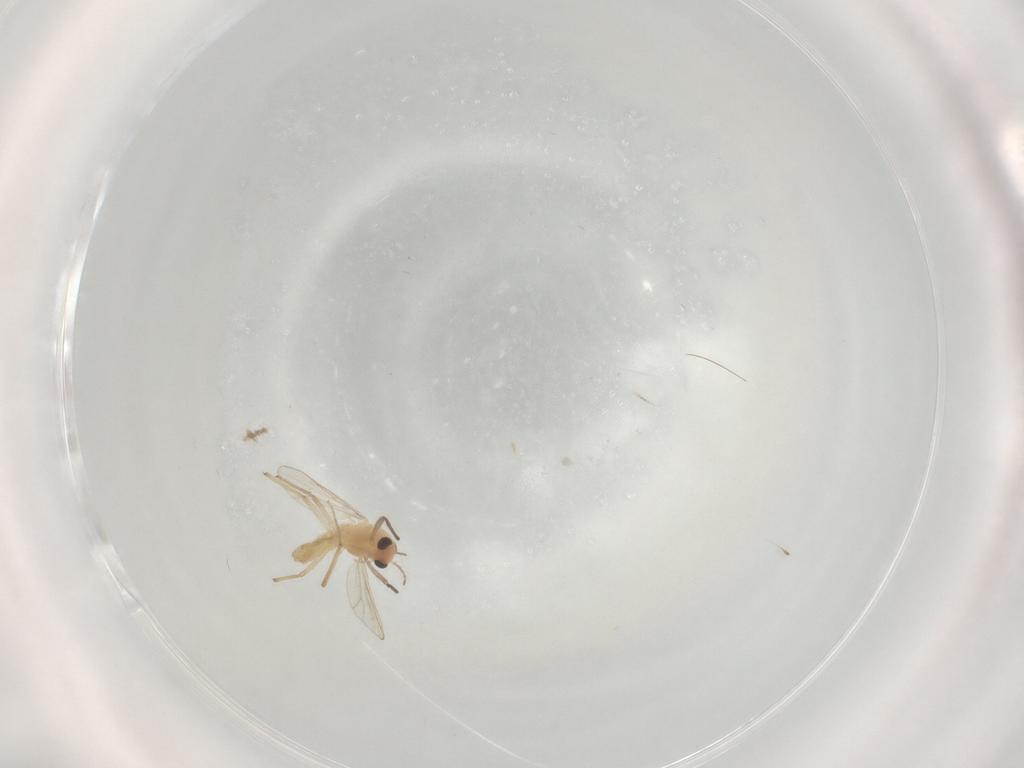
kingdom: Animalia
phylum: Arthropoda
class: Insecta
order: Diptera
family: Chironomidae
